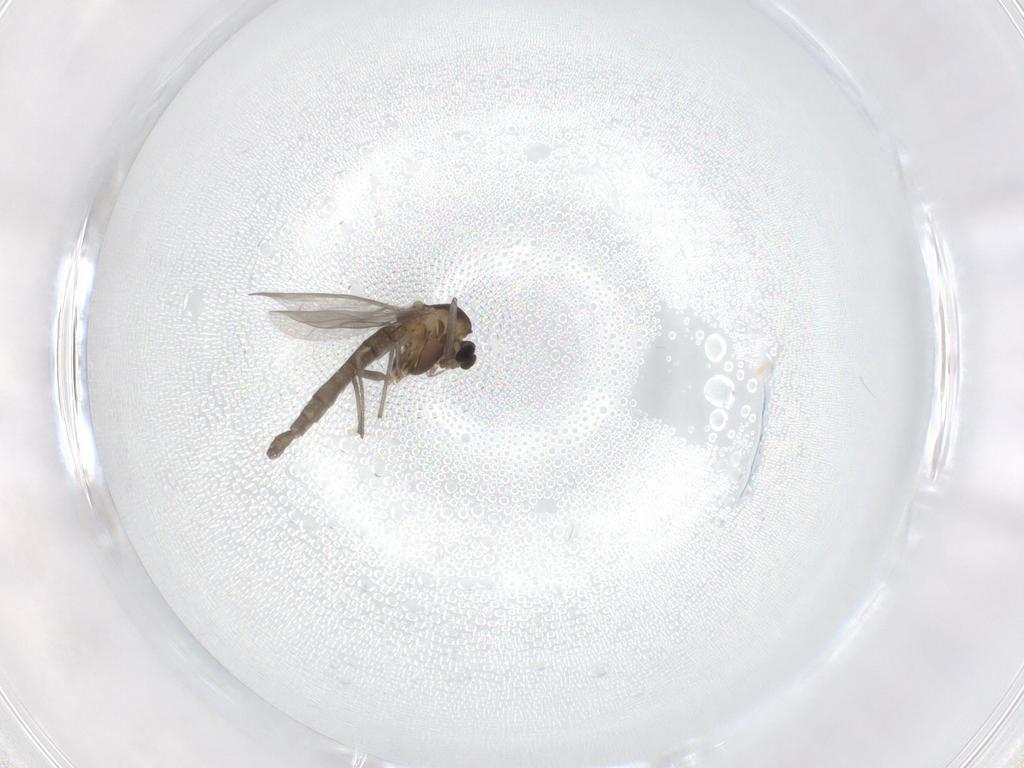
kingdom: Animalia
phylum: Arthropoda
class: Insecta
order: Diptera
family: Chironomidae
